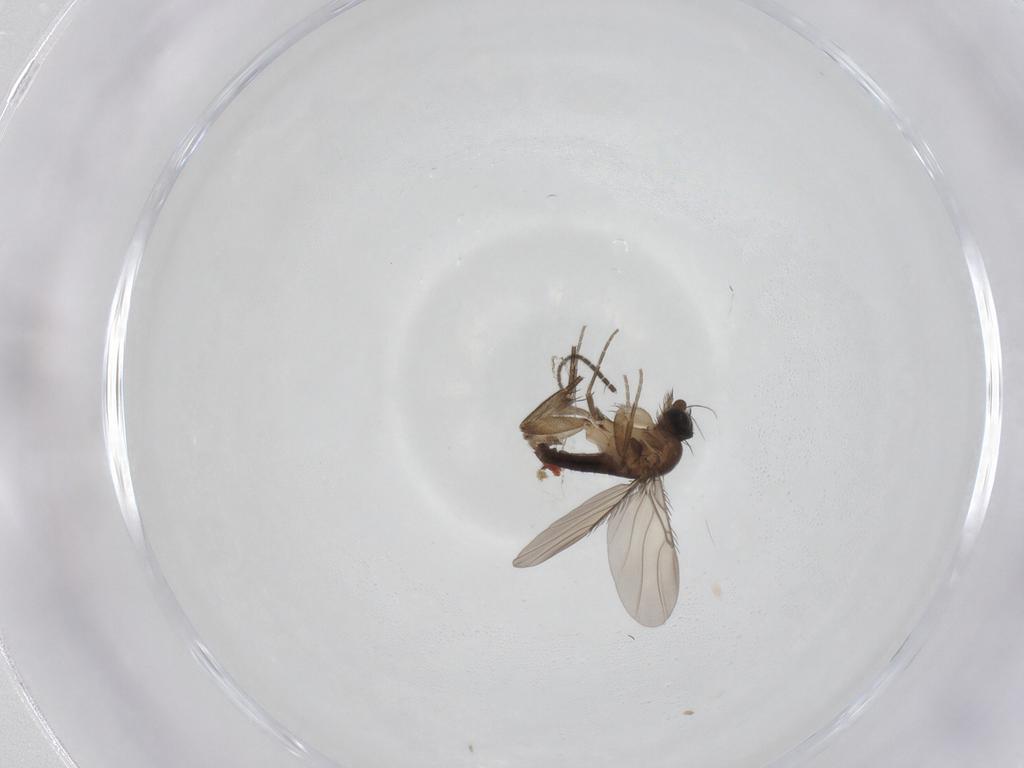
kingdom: Animalia
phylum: Arthropoda
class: Insecta
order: Diptera
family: Phoridae
